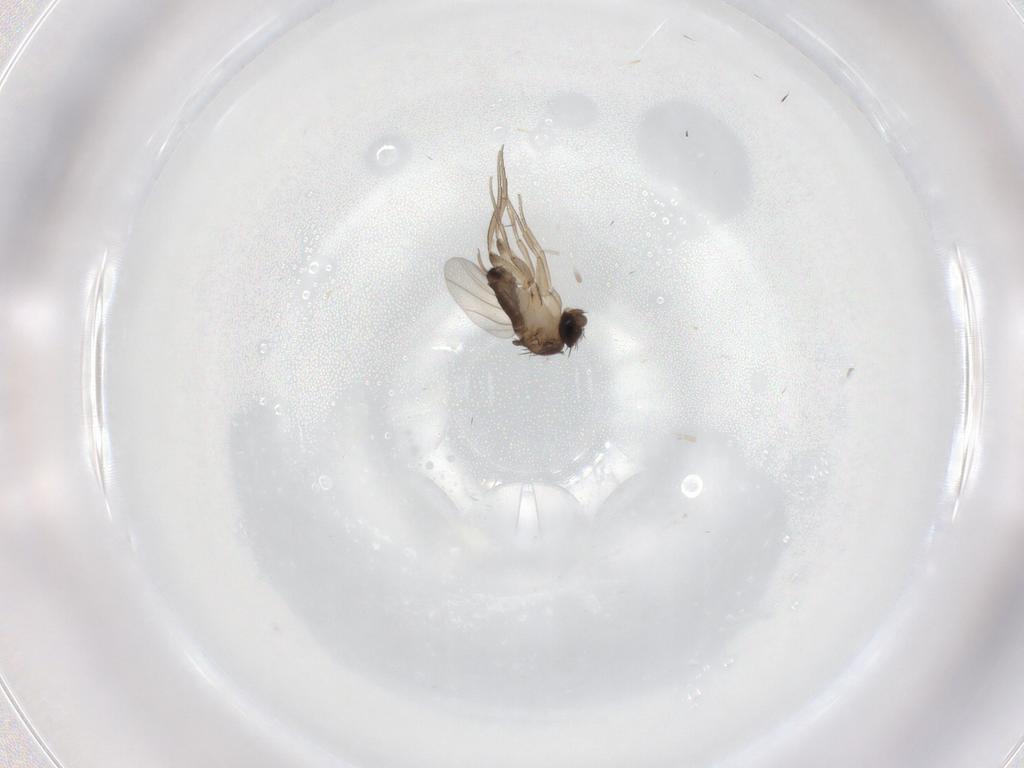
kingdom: Animalia
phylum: Arthropoda
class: Insecta
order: Diptera
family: Phoridae
